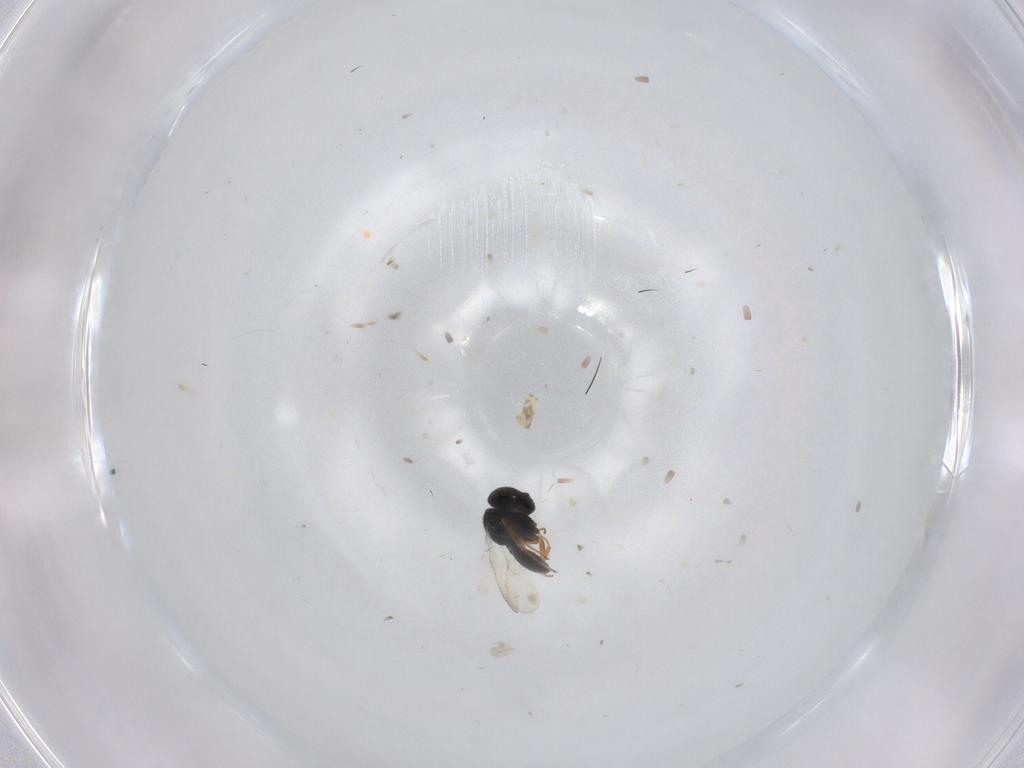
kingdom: Animalia
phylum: Arthropoda
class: Insecta
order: Hymenoptera
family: Scelionidae
